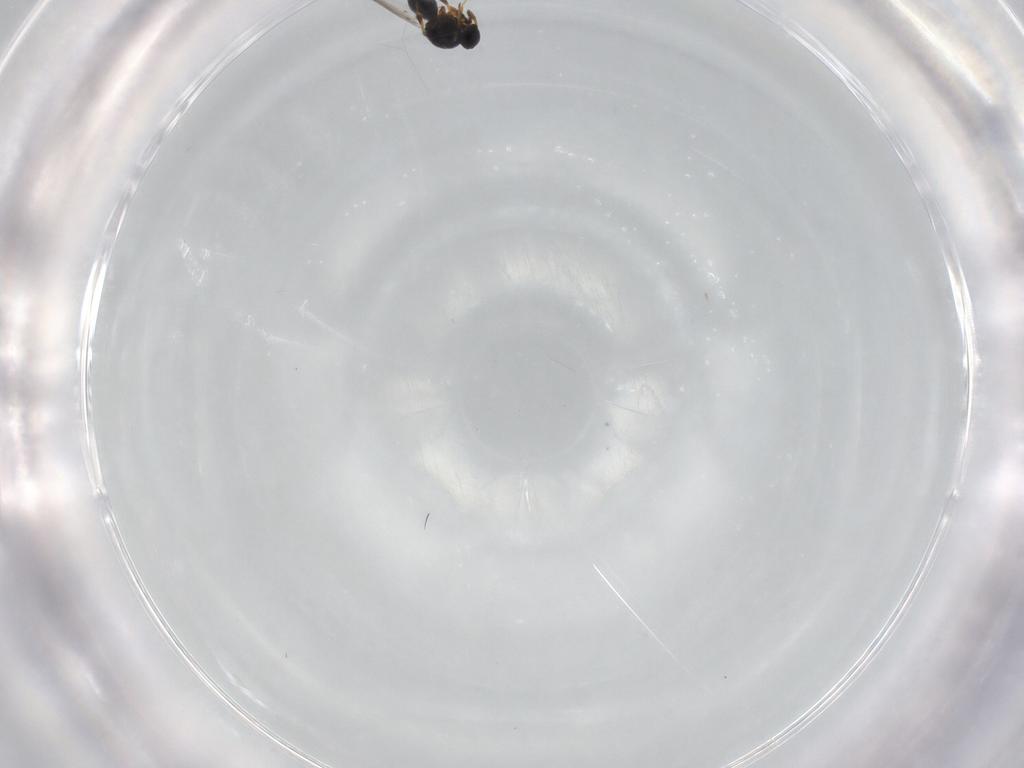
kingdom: Animalia
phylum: Arthropoda
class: Insecta
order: Hymenoptera
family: Platygastridae
